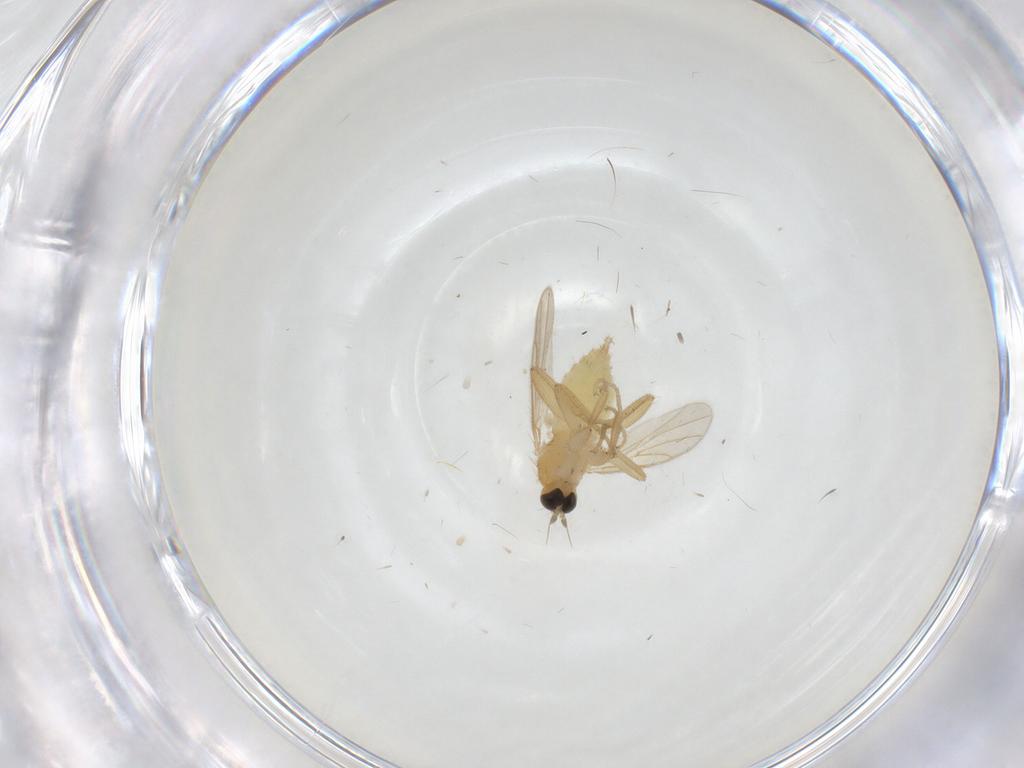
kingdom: Animalia
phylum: Arthropoda
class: Insecta
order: Diptera
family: Hybotidae
